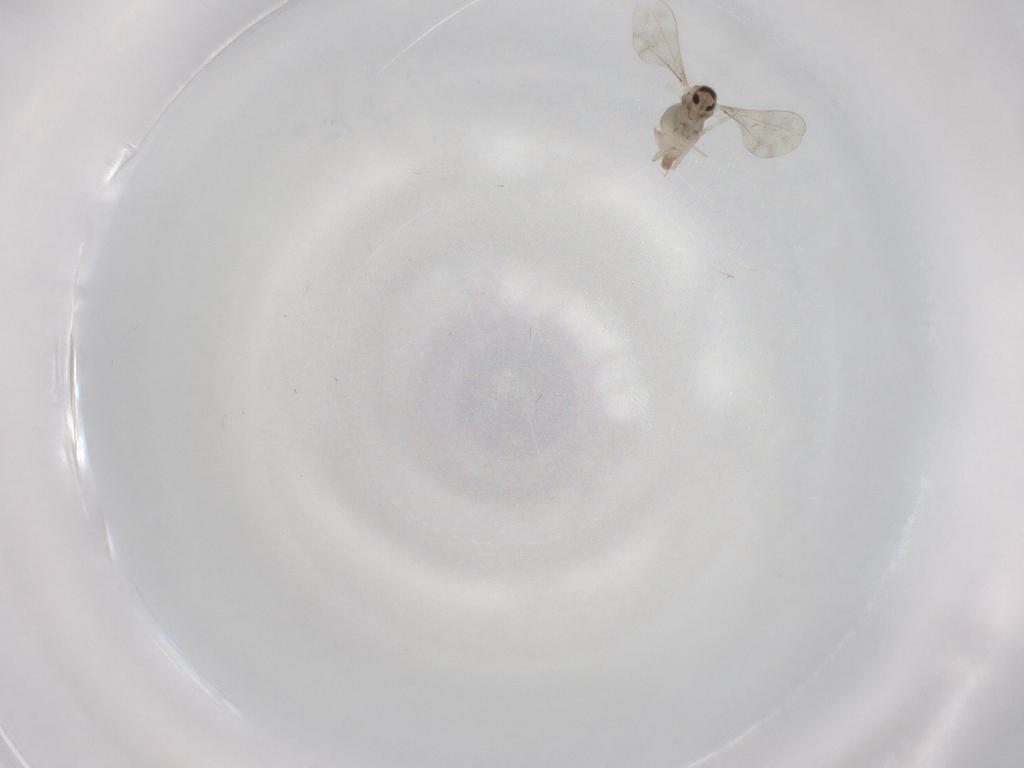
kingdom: Animalia
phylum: Arthropoda
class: Insecta
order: Diptera
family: Cecidomyiidae
